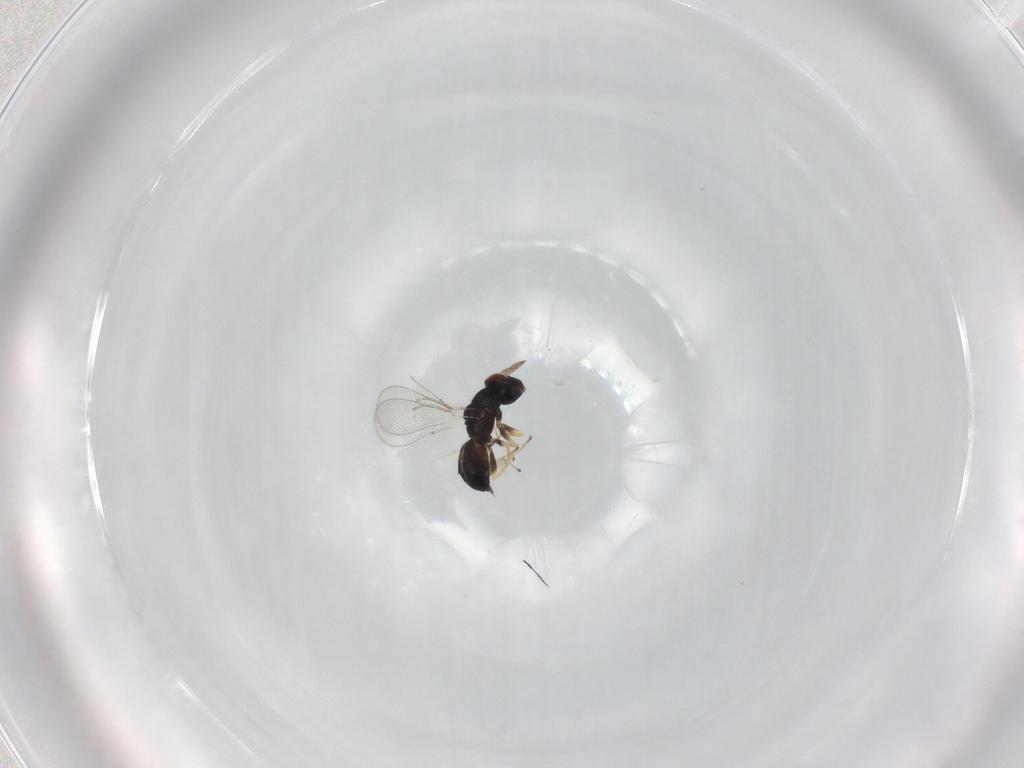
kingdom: Animalia
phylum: Arthropoda
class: Insecta
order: Hymenoptera
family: Eulophidae
